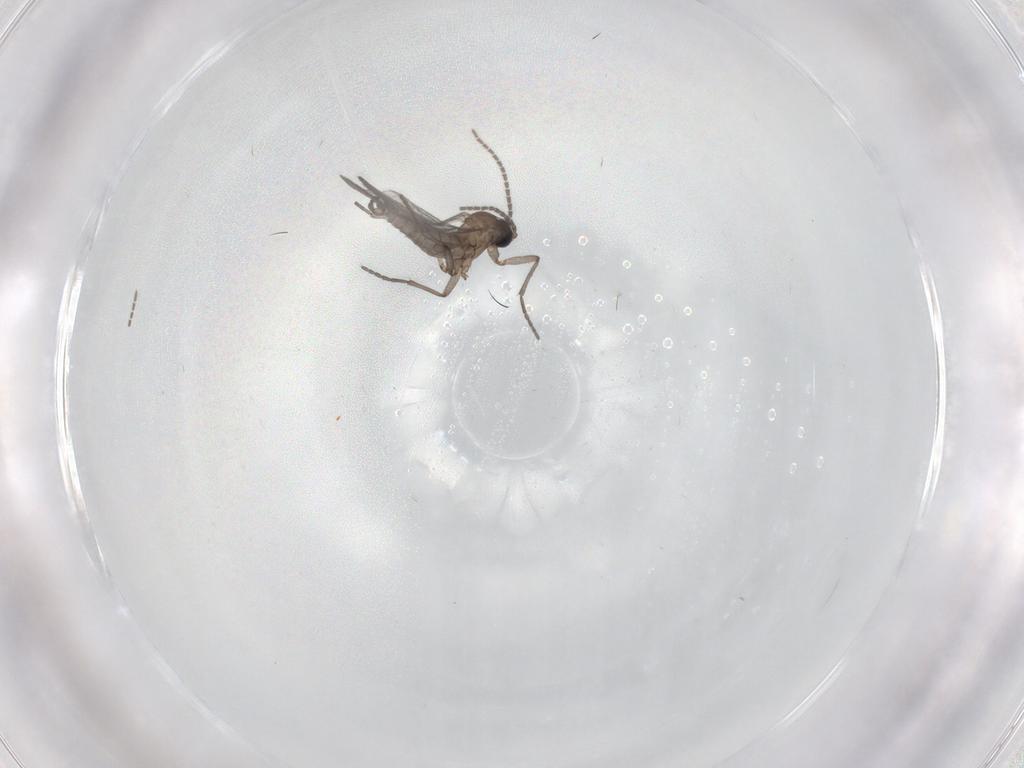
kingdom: Animalia
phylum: Arthropoda
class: Insecta
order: Diptera
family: Sciaridae
